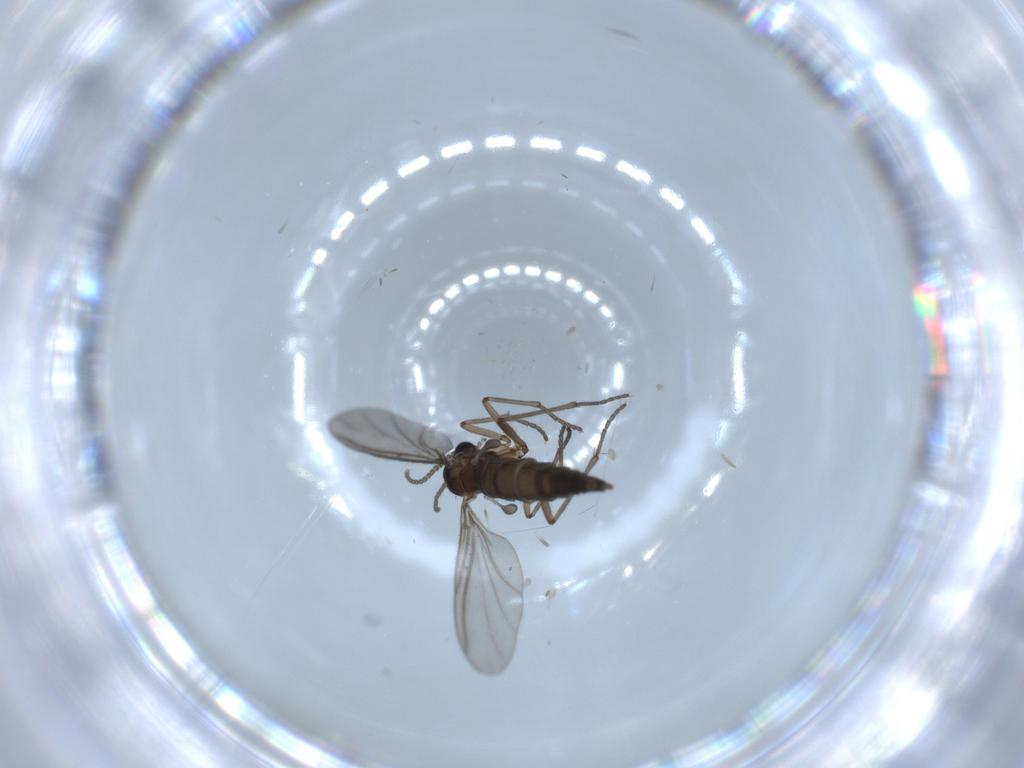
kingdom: Animalia
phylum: Arthropoda
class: Insecta
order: Diptera
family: Sciaridae
